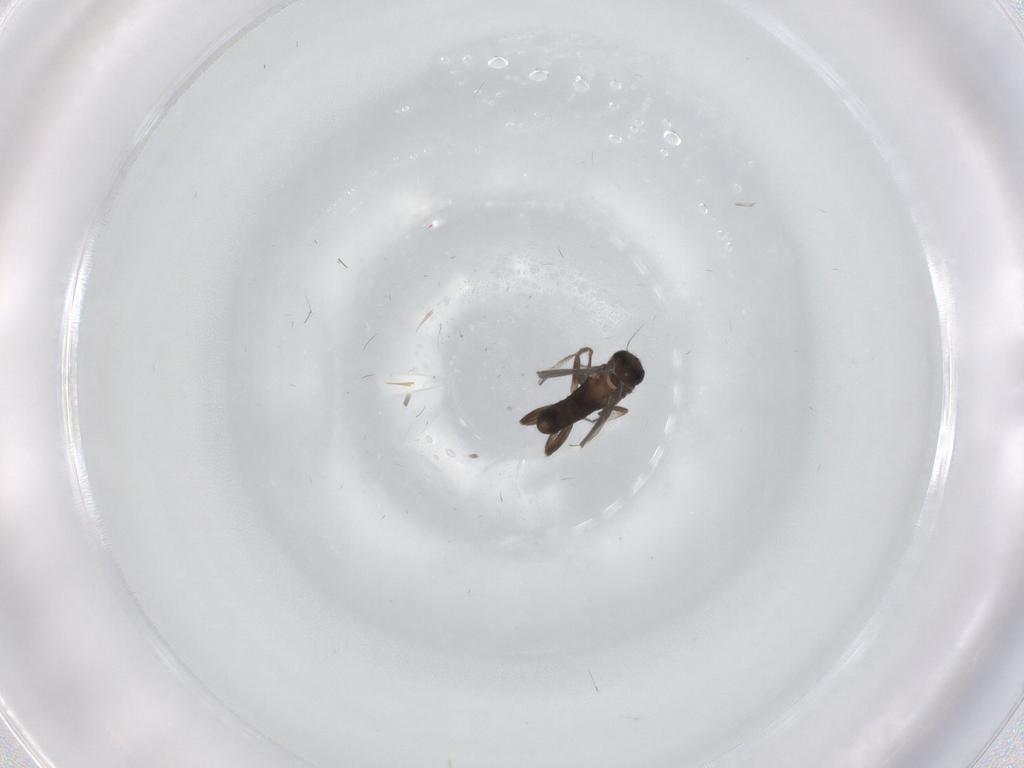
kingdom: Animalia
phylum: Arthropoda
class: Insecta
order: Diptera
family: Phoridae
